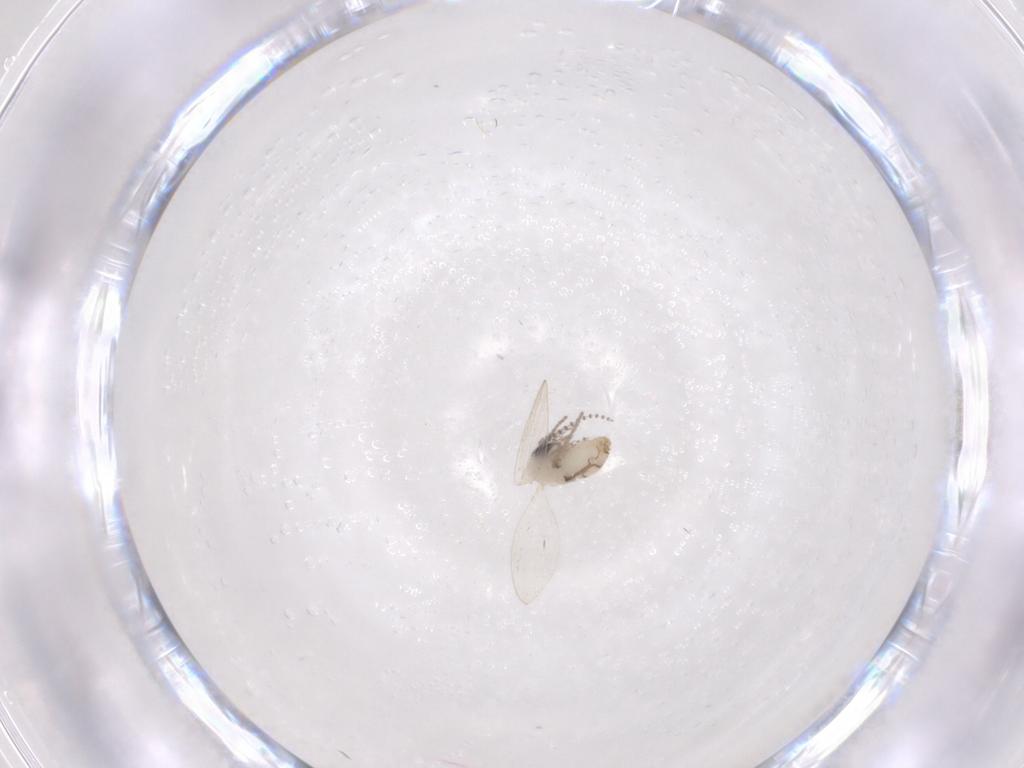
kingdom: Animalia
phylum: Arthropoda
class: Insecta
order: Diptera
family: Psychodidae
